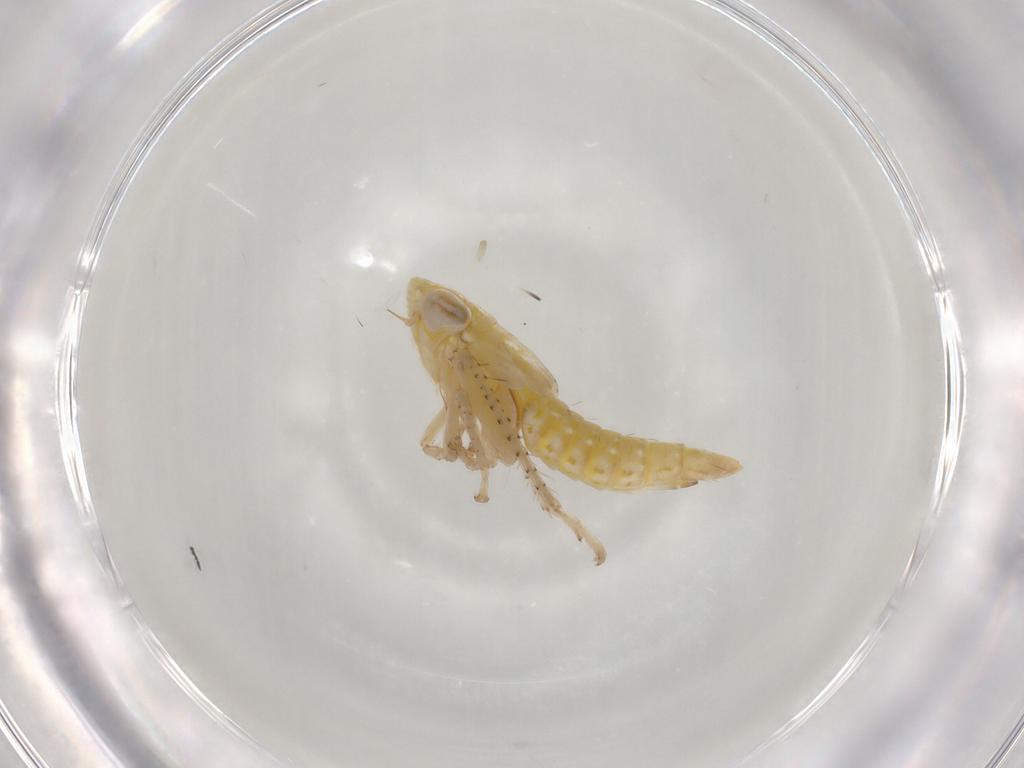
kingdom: Animalia
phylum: Arthropoda
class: Insecta
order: Hemiptera
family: Cicadellidae
